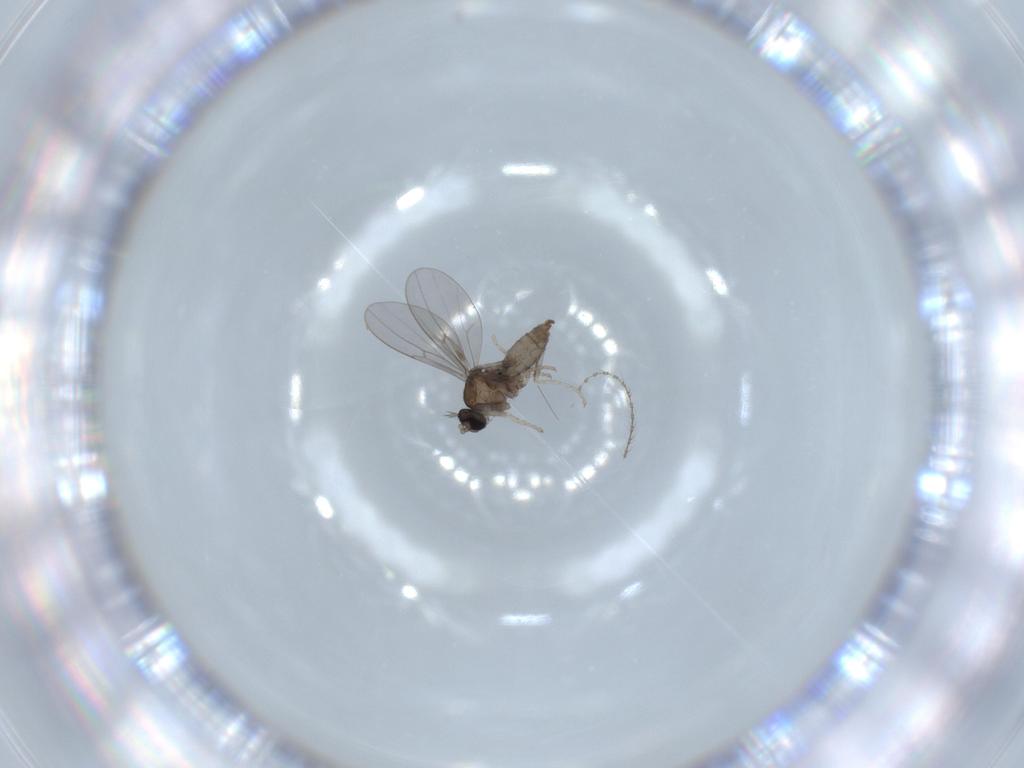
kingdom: Animalia
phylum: Arthropoda
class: Insecta
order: Diptera
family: Cecidomyiidae
